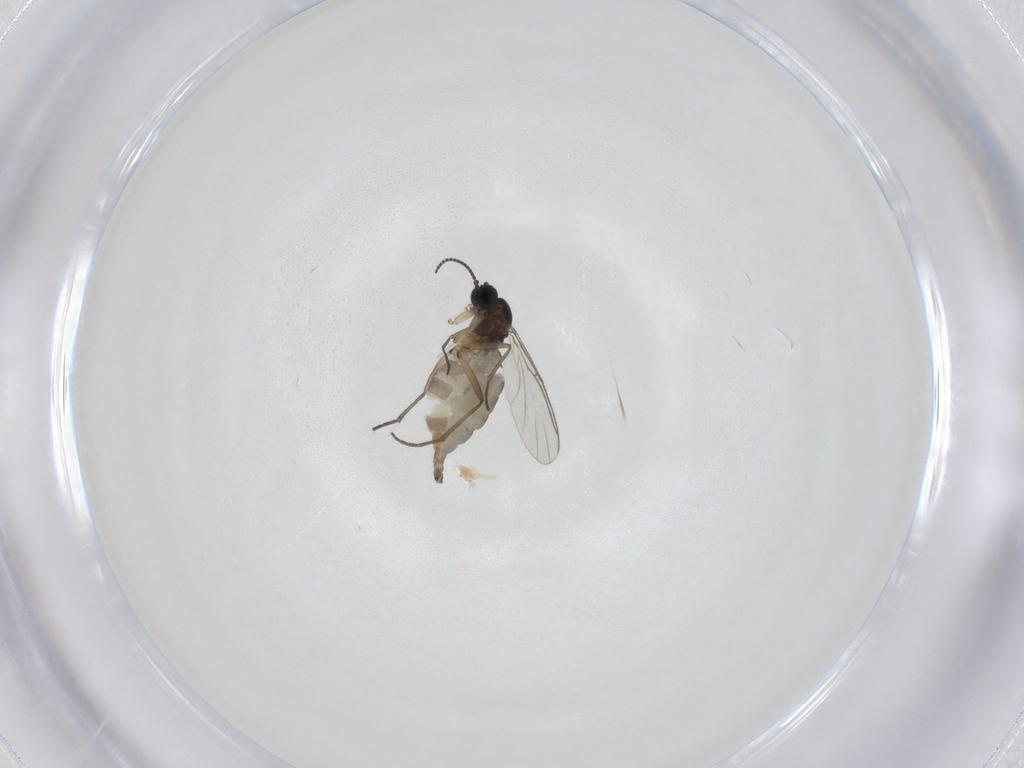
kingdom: Animalia
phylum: Arthropoda
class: Insecta
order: Diptera
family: Sciaridae
